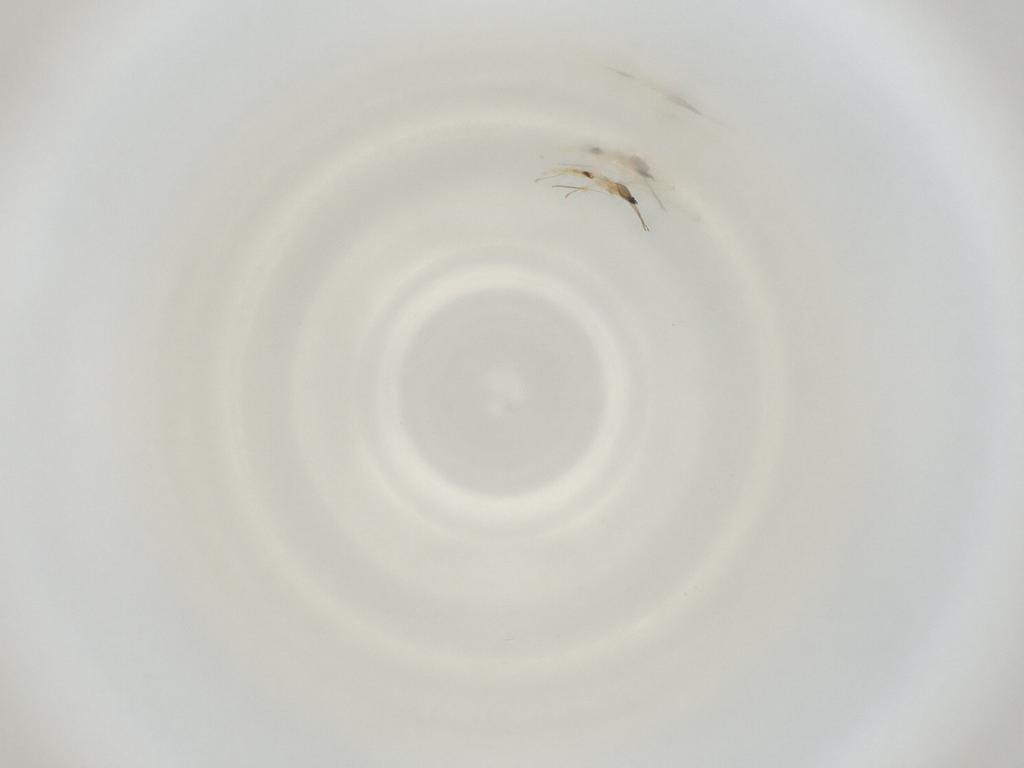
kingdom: Animalia
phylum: Arthropoda
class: Insecta
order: Diptera
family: Cecidomyiidae
